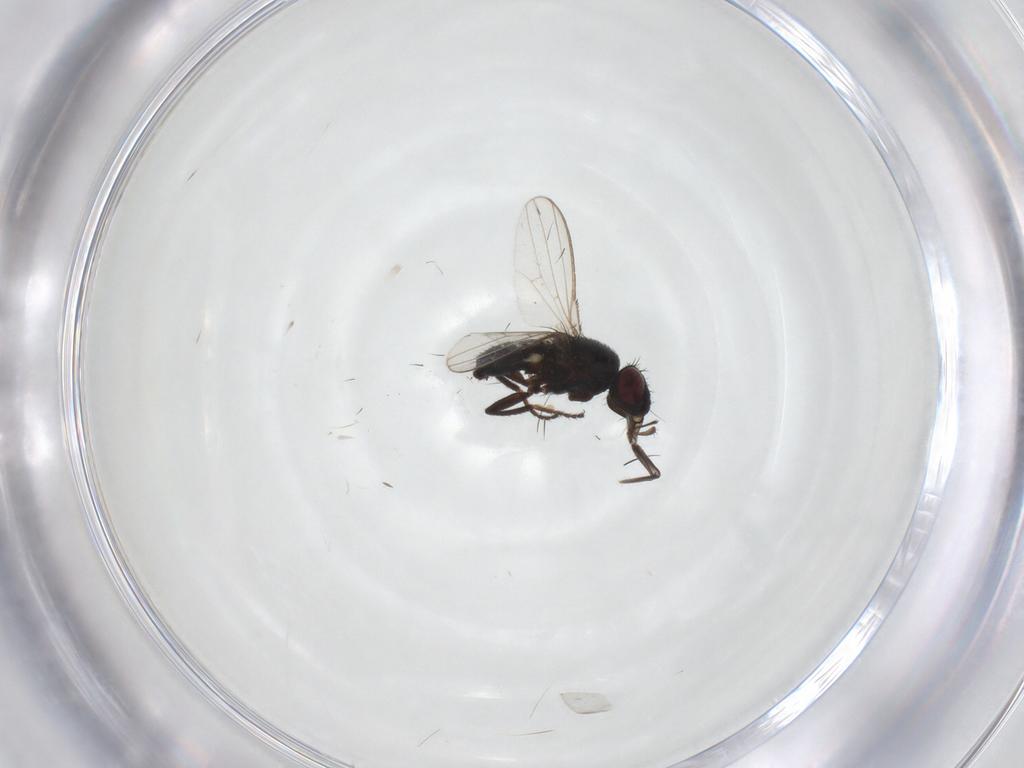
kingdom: Animalia
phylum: Arthropoda
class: Insecta
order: Diptera
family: Milichiidae
